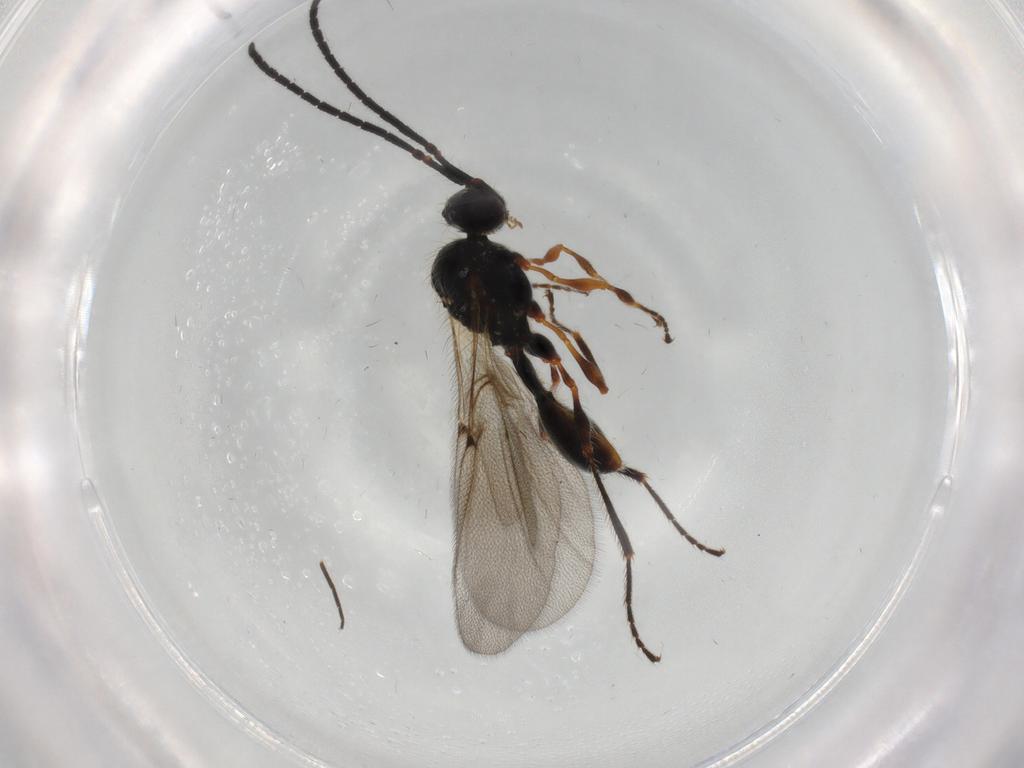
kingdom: Animalia
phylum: Arthropoda
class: Insecta
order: Hymenoptera
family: Diapriidae
